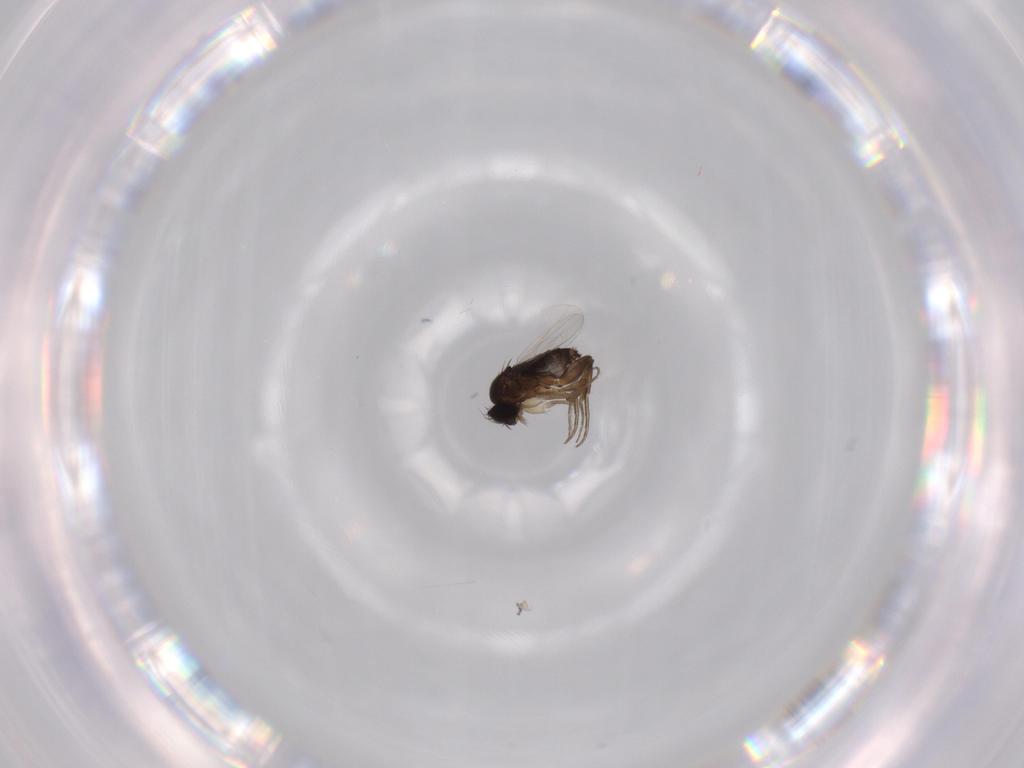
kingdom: Animalia
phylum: Arthropoda
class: Insecta
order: Diptera
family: Phoridae
